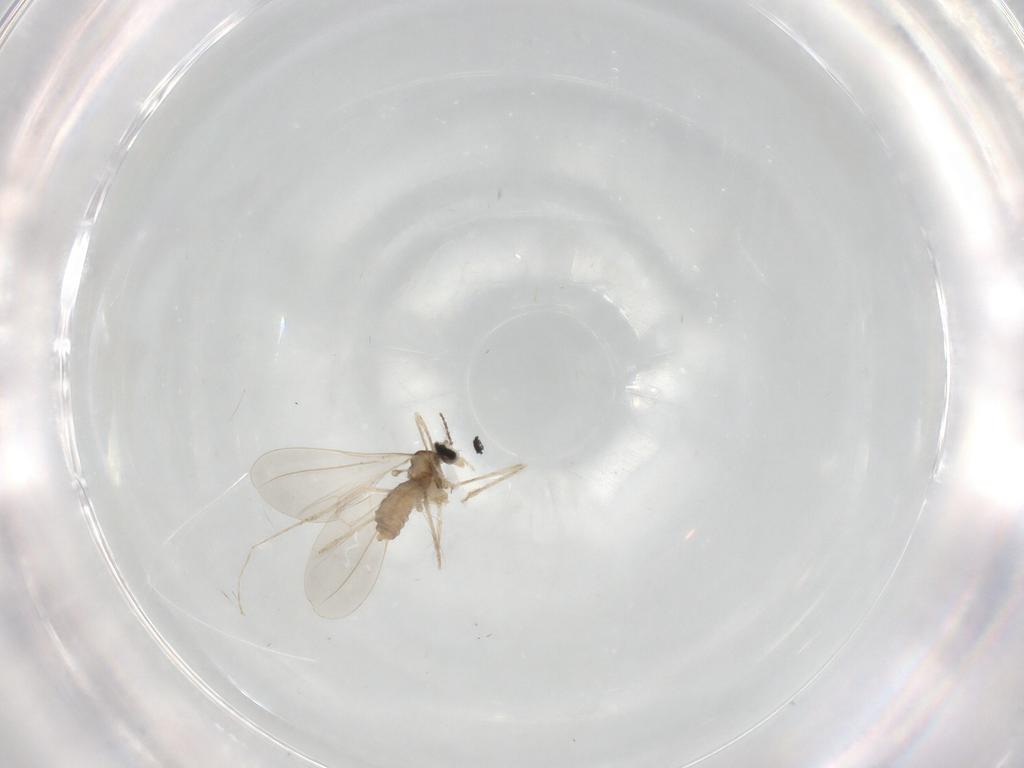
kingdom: Animalia
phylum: Arthropoda
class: Insecta
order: Diptera
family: Cecidomyiidae
